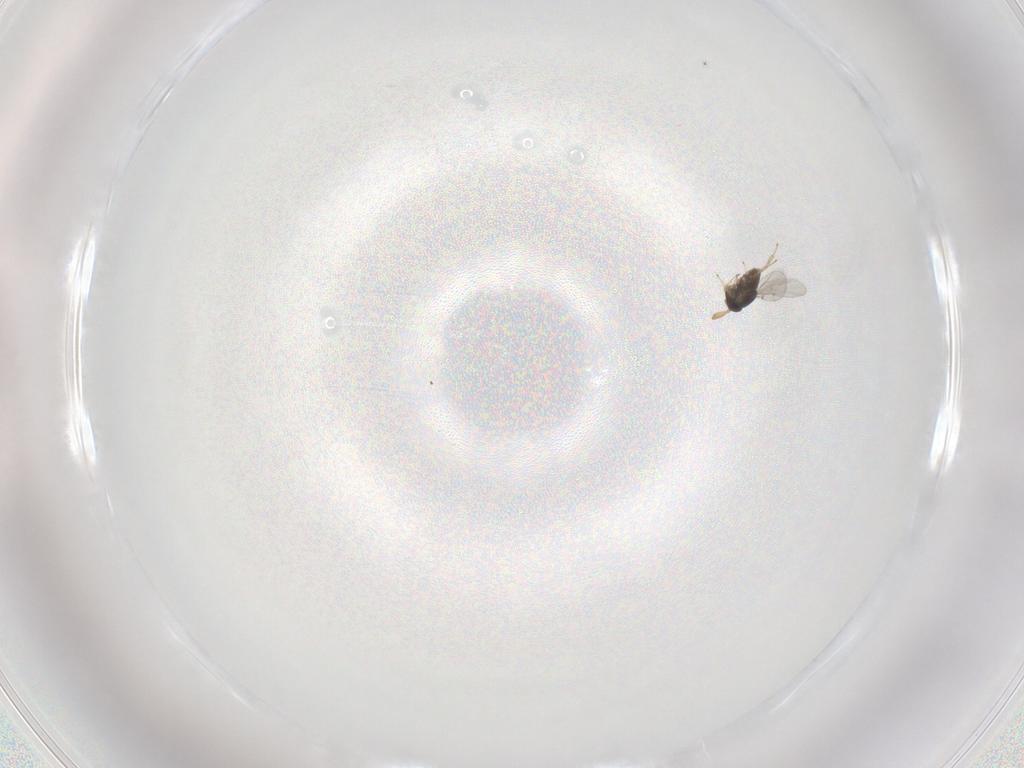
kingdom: Animalia
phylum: Arthropoda
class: Insecta
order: Hymenoptera
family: Encyrtidae
